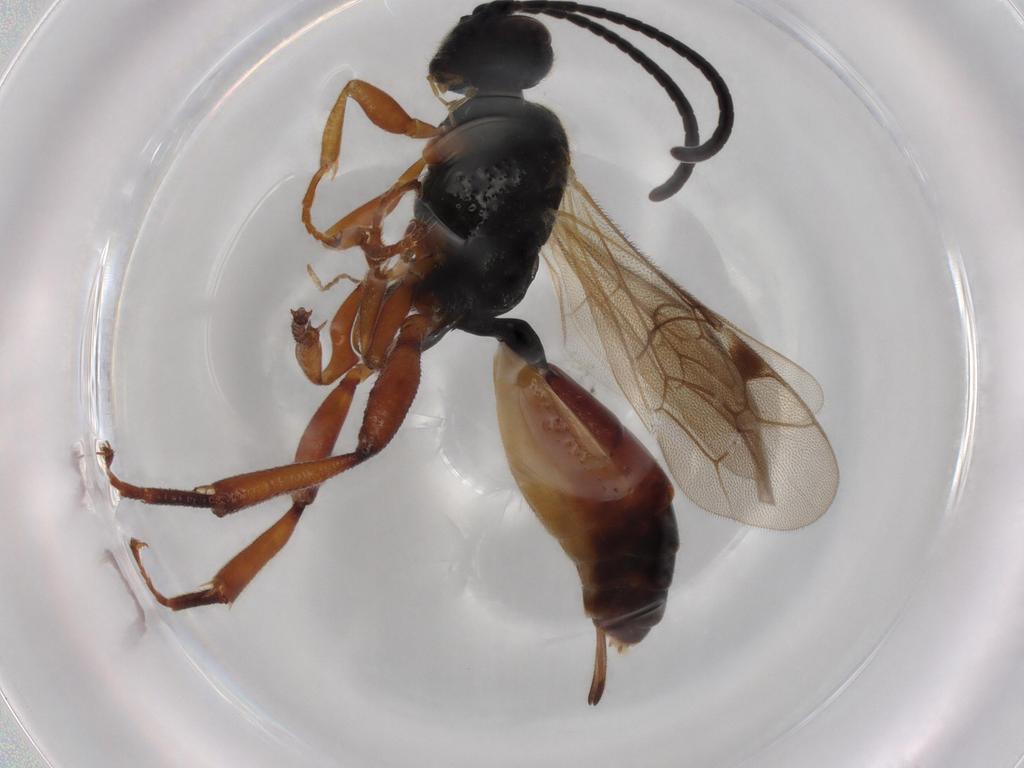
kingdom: Animalia
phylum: Arthropoda
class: Insecta
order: Hymenoptera
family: Ichneumonidae
